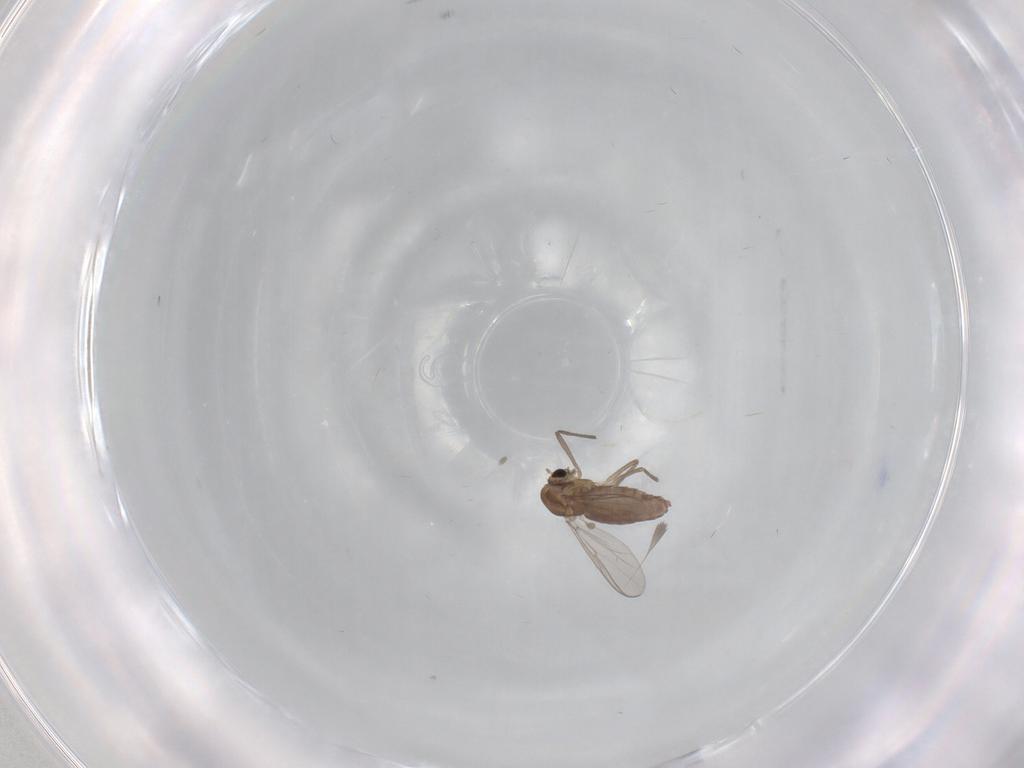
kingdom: Animalia
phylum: Arthropoda
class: Insecta
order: Diptera
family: Chironomidae
